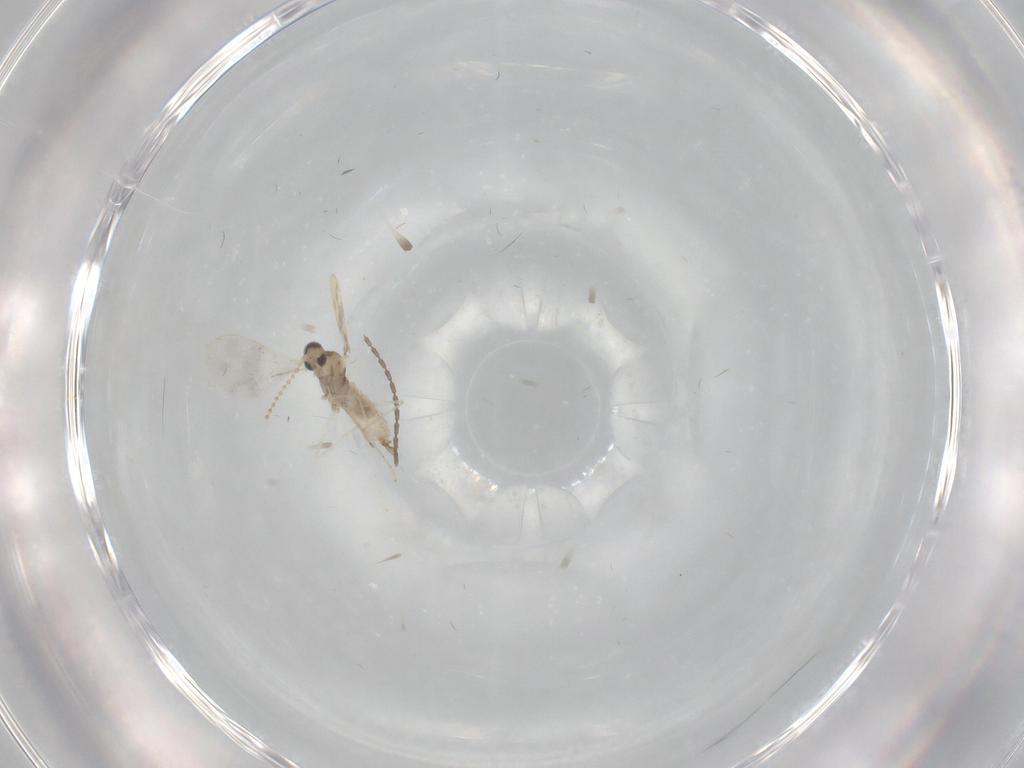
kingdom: Animalia
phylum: Arthropoda
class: Insecta
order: Diptera
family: Cecidomyiidae
